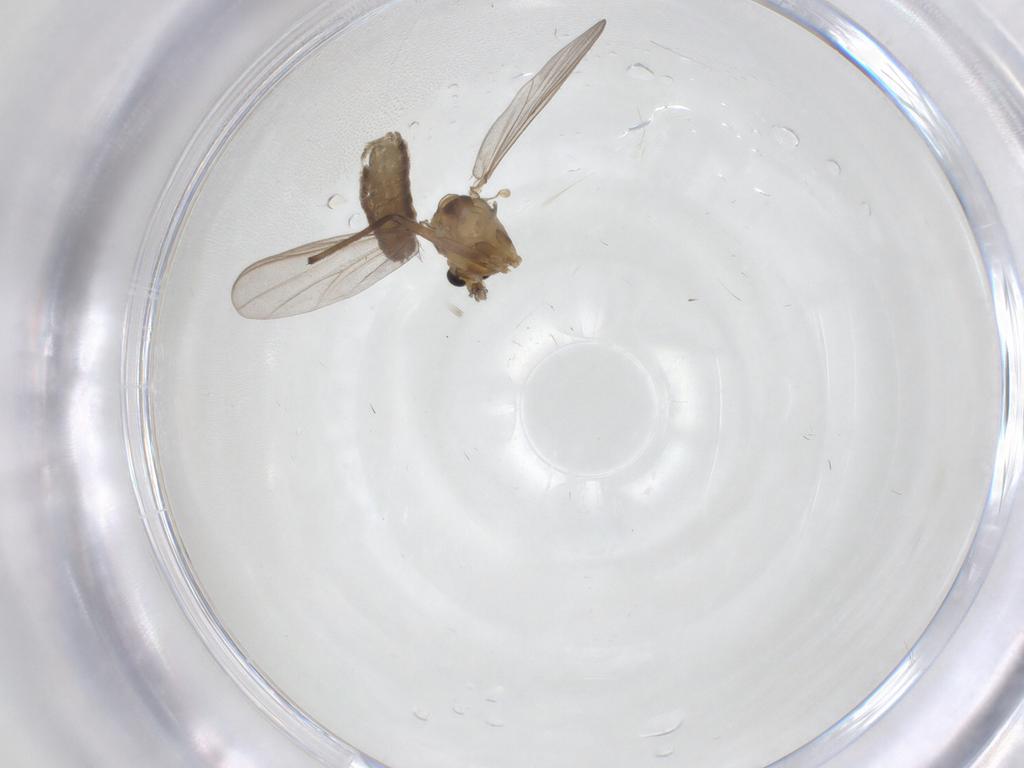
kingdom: Animalia
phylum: Arthropoda
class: Insecta
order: Diptera
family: Chironomidae
